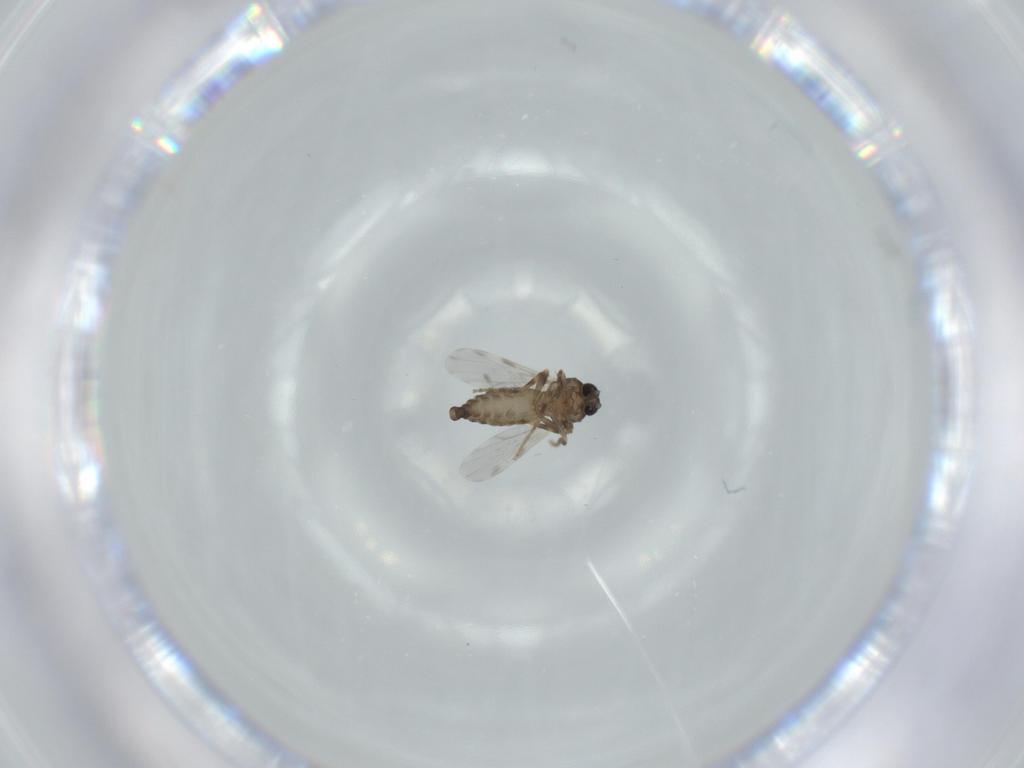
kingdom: Animalia
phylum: Arthropoda
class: Insecta
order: Diptera
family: Ceratopogonidae
